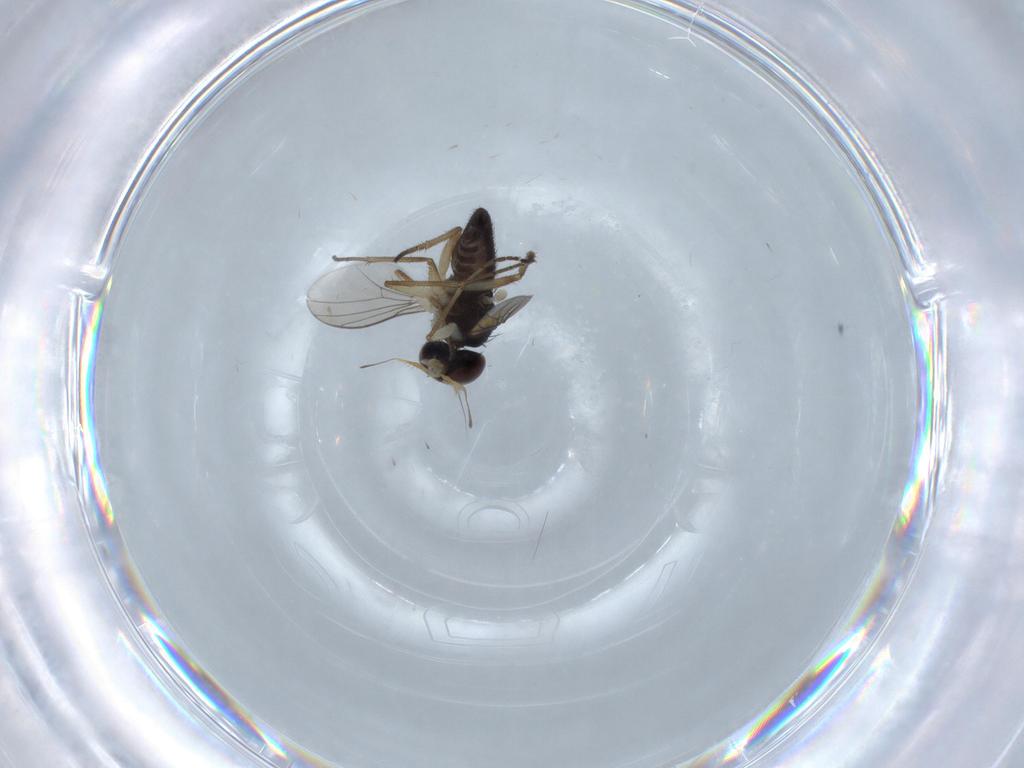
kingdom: Animalia
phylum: Arthropoda
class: Insecta
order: Diptera
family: Dolichopodidae
